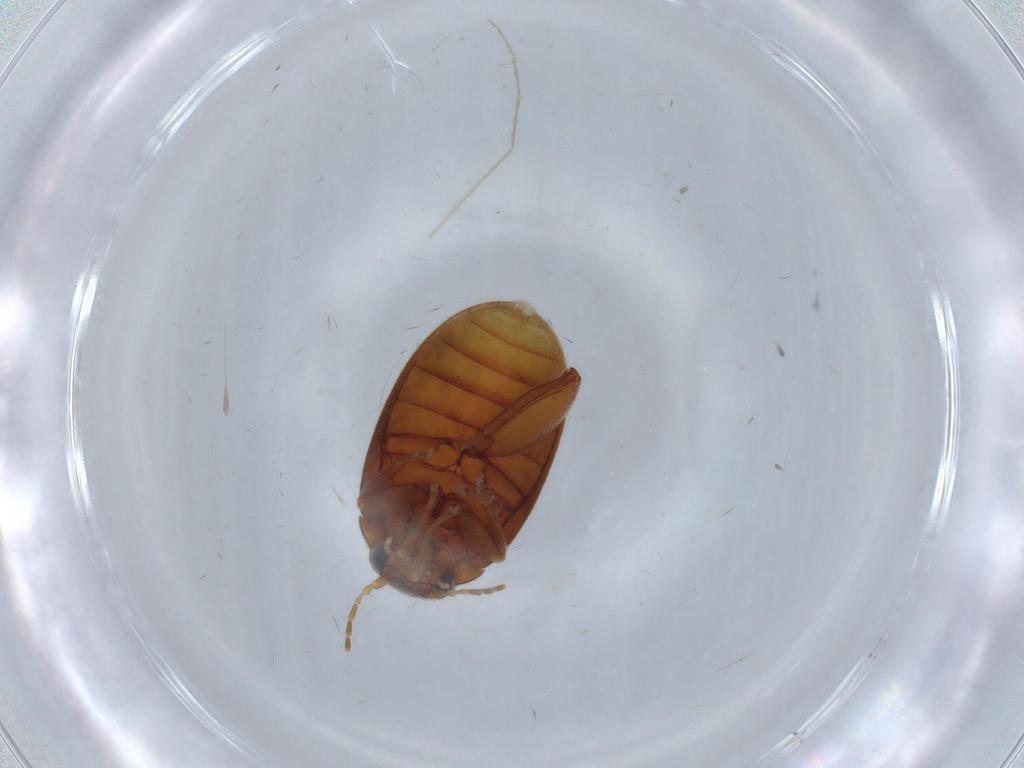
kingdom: Animalia
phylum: Arthropoda
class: Insecta
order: Coleoptera
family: Scirtidae
